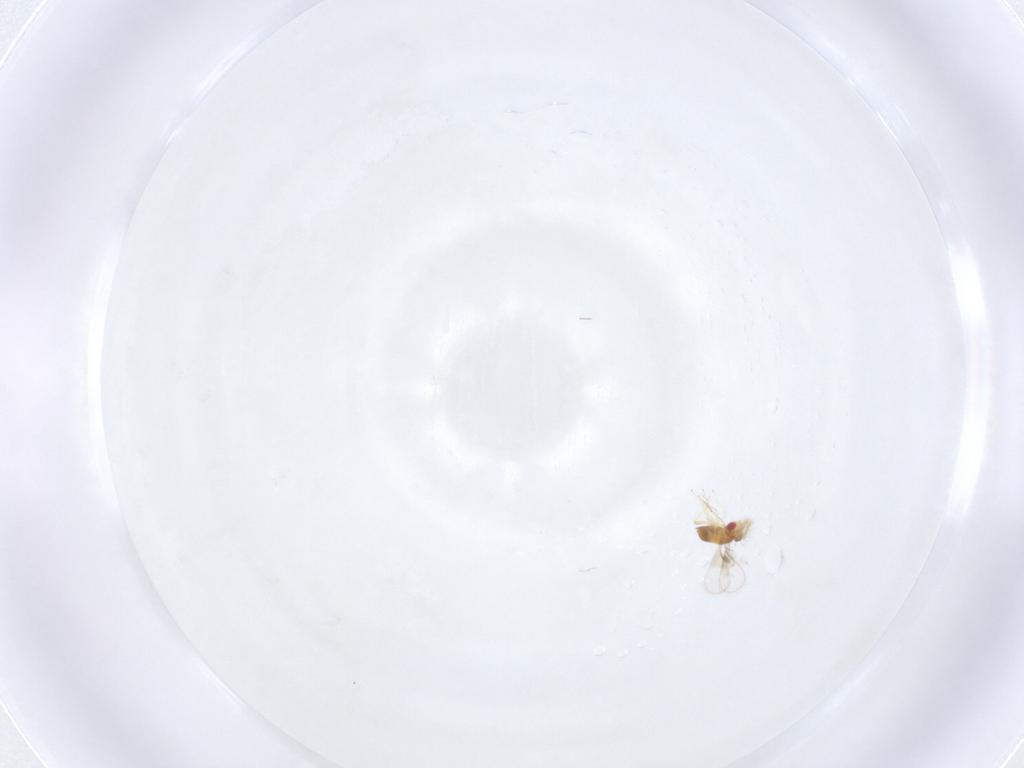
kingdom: Animalia
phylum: Arthropoda
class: Insecta
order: Hymenoptera
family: Trichogrammatidae
